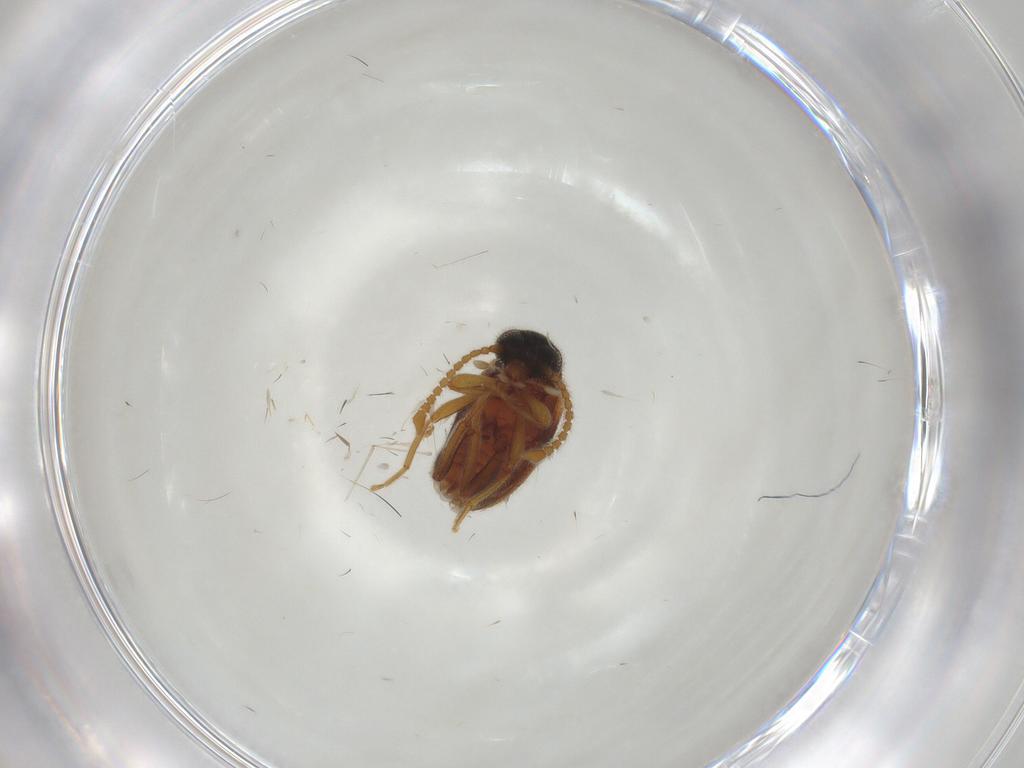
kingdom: Animalia
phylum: Arthropoda
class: Insecta
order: Coleoptera
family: Aderidae
